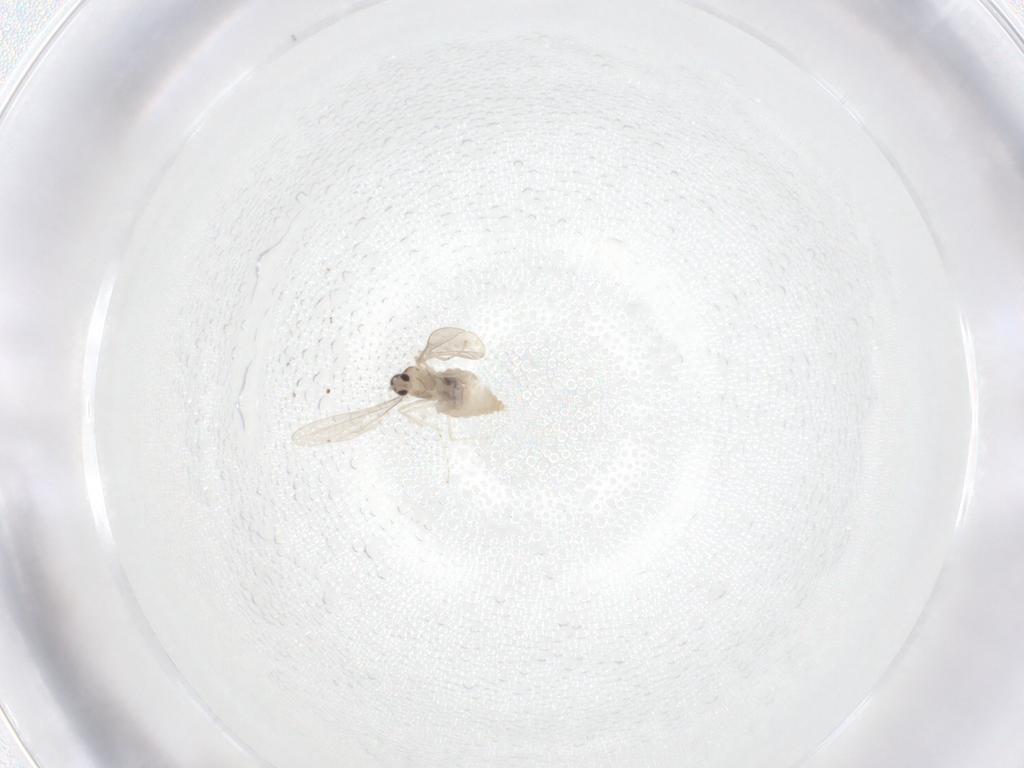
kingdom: Animalia
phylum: Arthropoda
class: Insecta
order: Diptera
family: Cecidomyiidae
